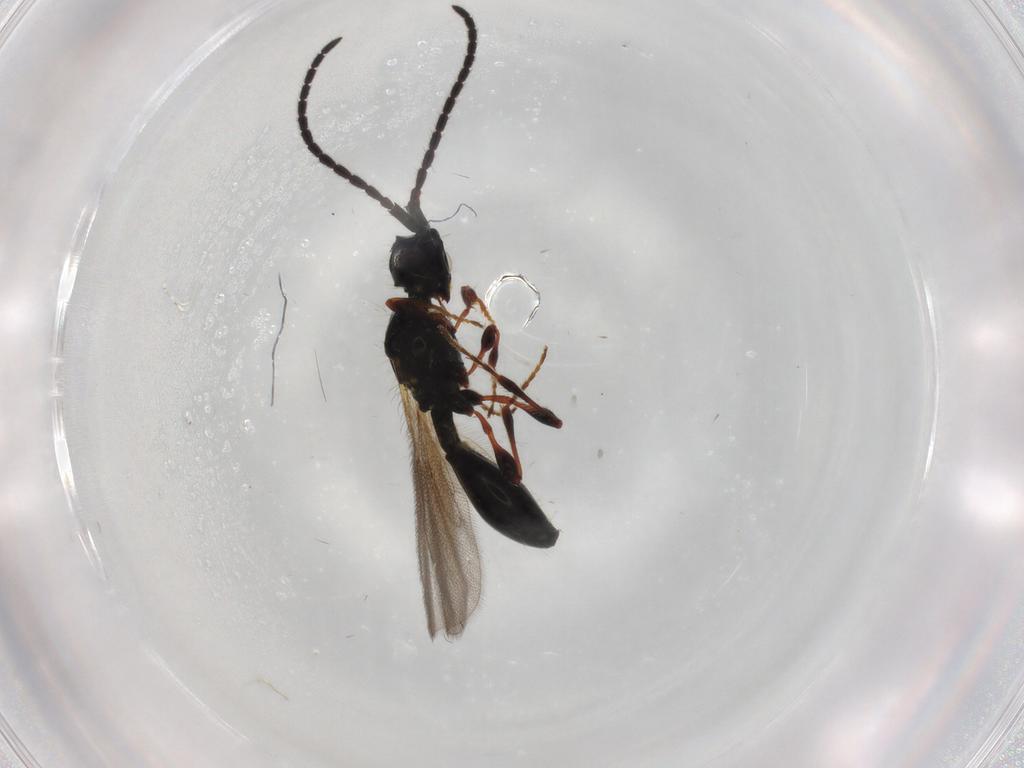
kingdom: Animalia
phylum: Arthropoda
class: Insecta
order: Hymenoptera
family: Diapriidae
